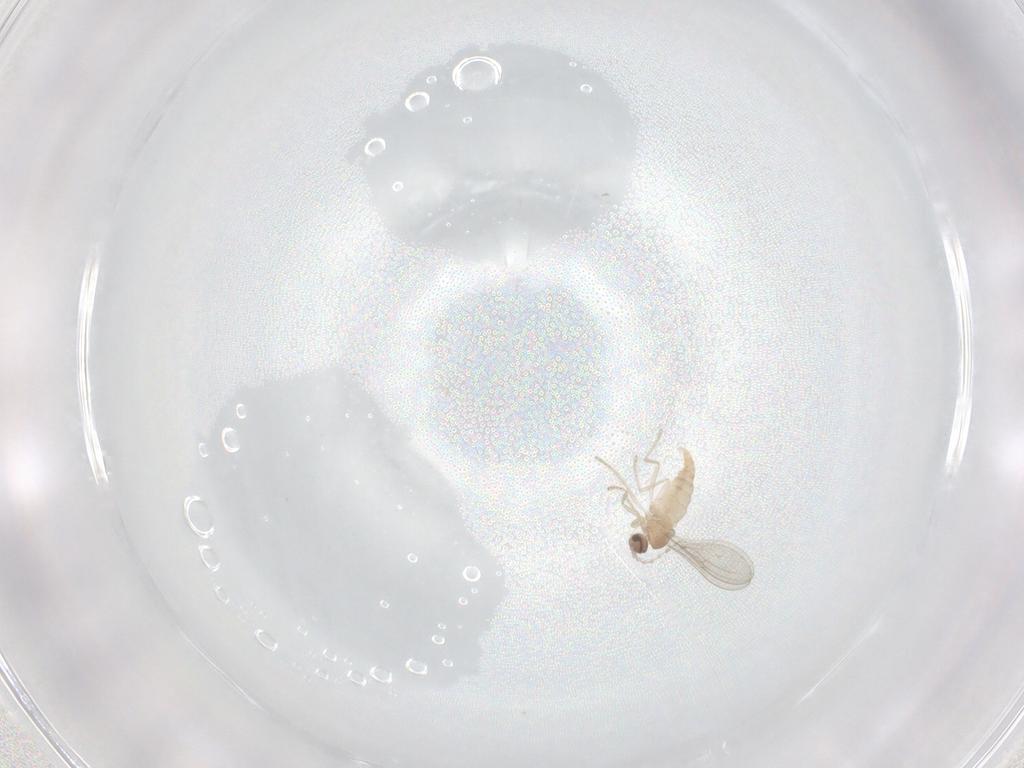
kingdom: Animalia
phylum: Arthropoda
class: Insecta
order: Diptera
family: Cecidomyiidae
